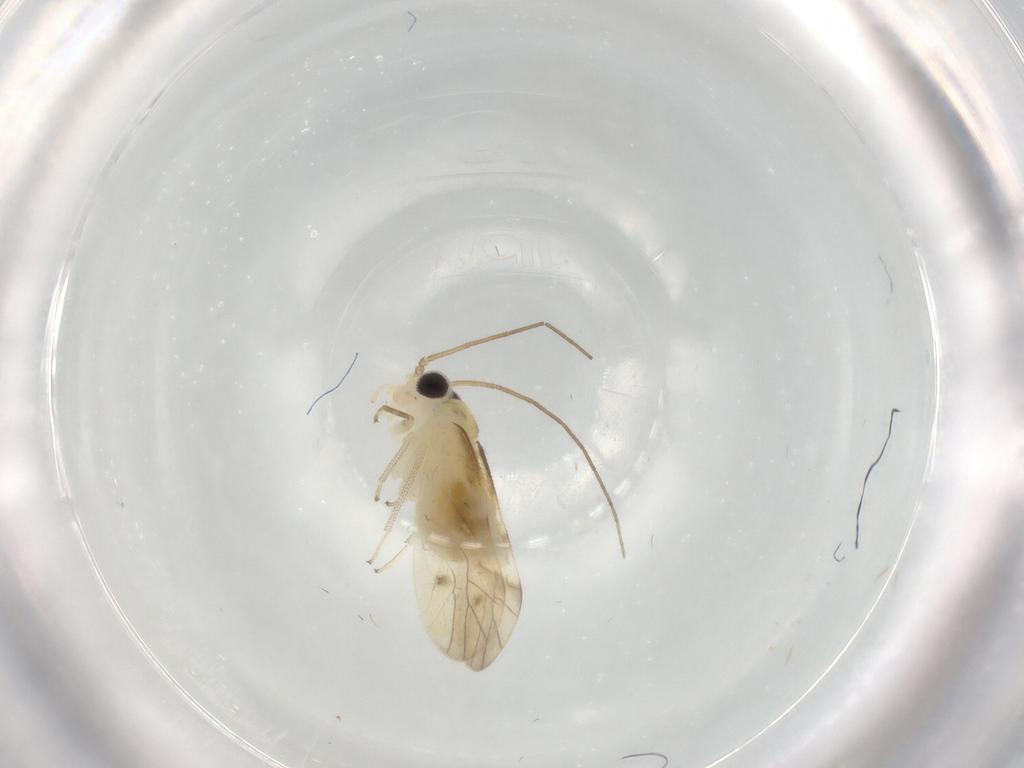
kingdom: Animalia
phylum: Arthropoda
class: Insecta
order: Psocodea
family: Caeciliusidae
